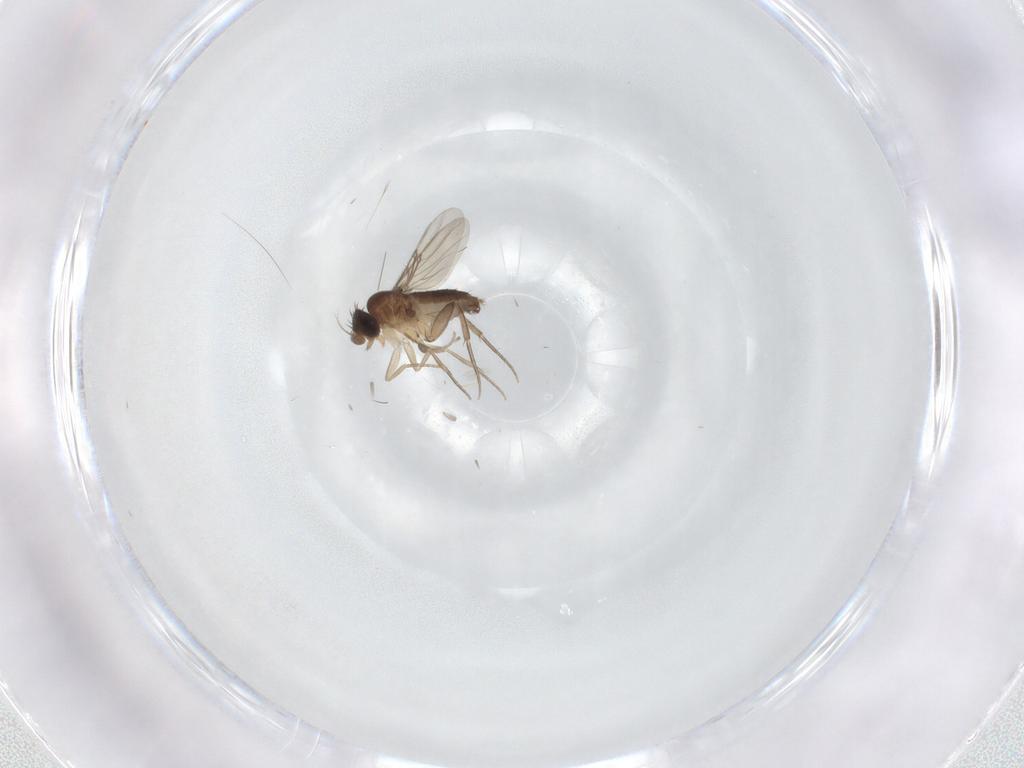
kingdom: Animalia
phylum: Arthropoda
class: Insecta
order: Diptera
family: Phoridae
